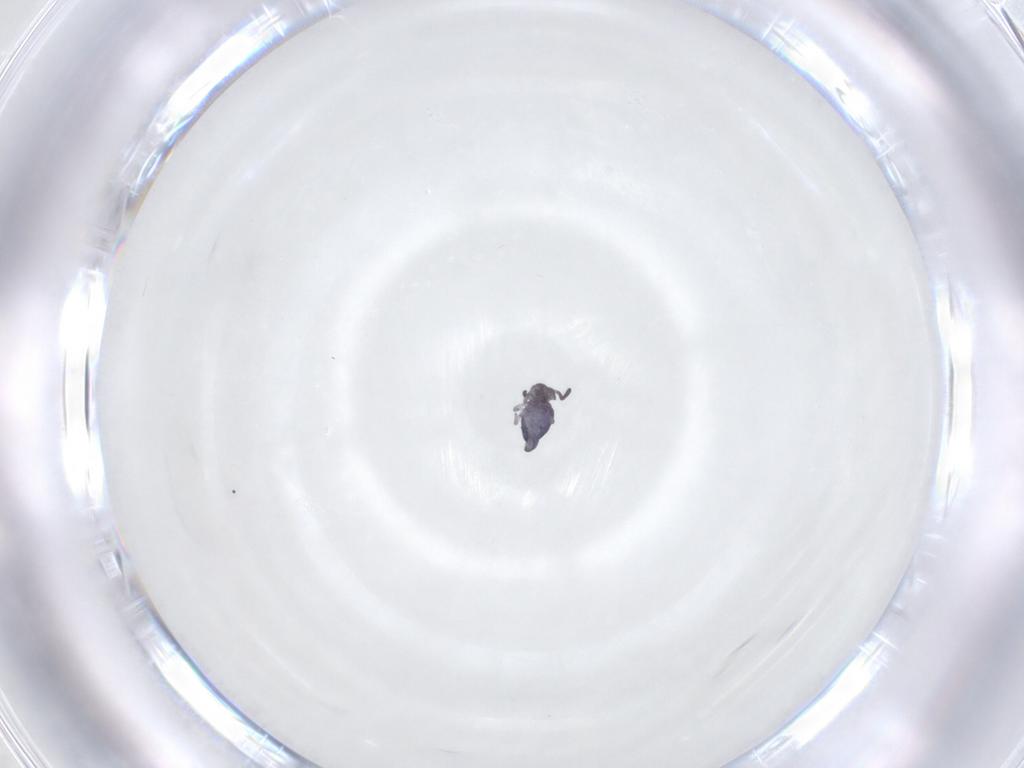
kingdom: Animalia
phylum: Arthropoda
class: Collembola
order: Symphypleona
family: Katiannidae
